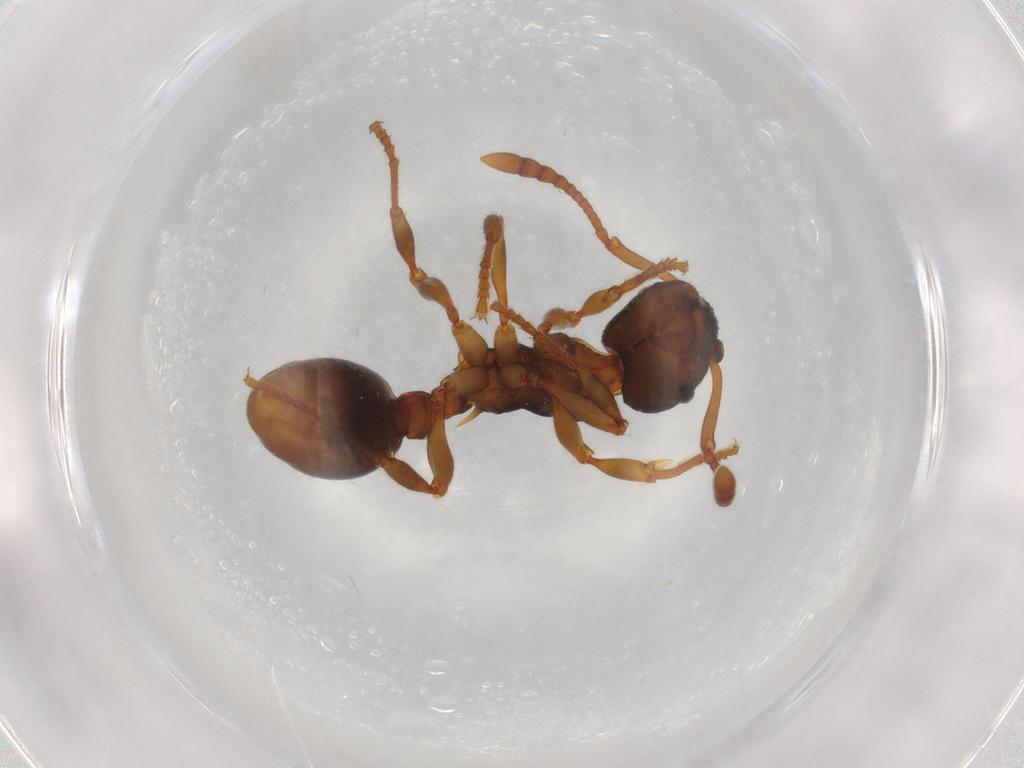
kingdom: Animalia
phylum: Arthropoda
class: Insecta
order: Hymenoptera
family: Formicidae
